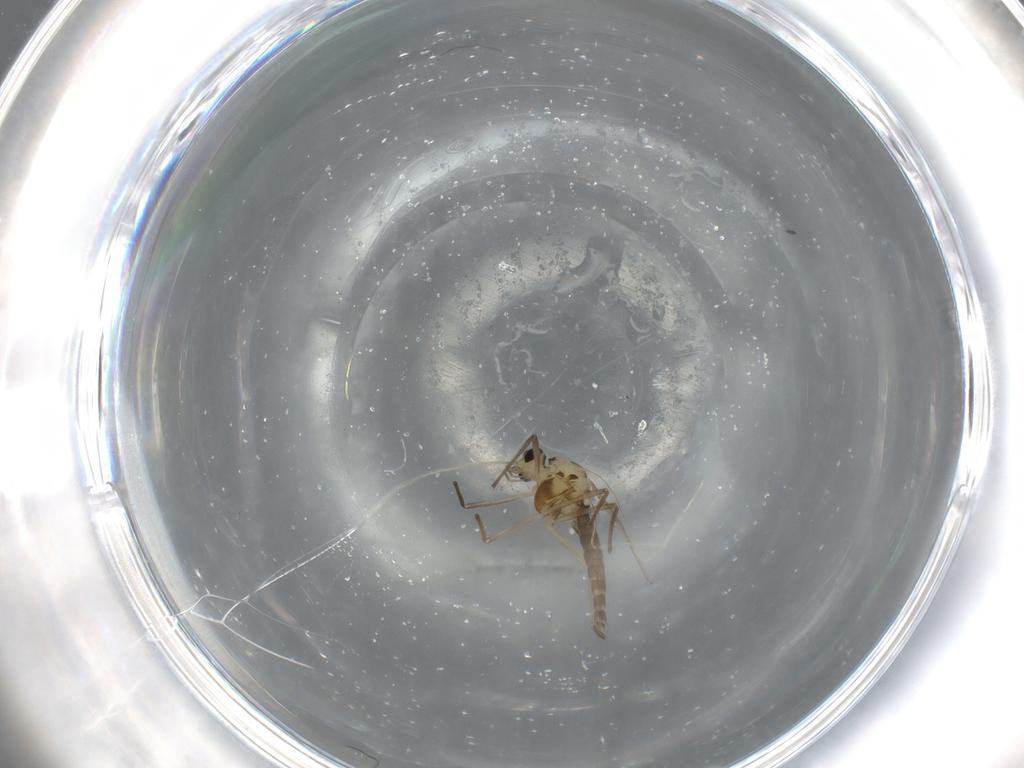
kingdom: Animalia
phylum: Arthropoda
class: Insecta
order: Diptera
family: Chironomidae
